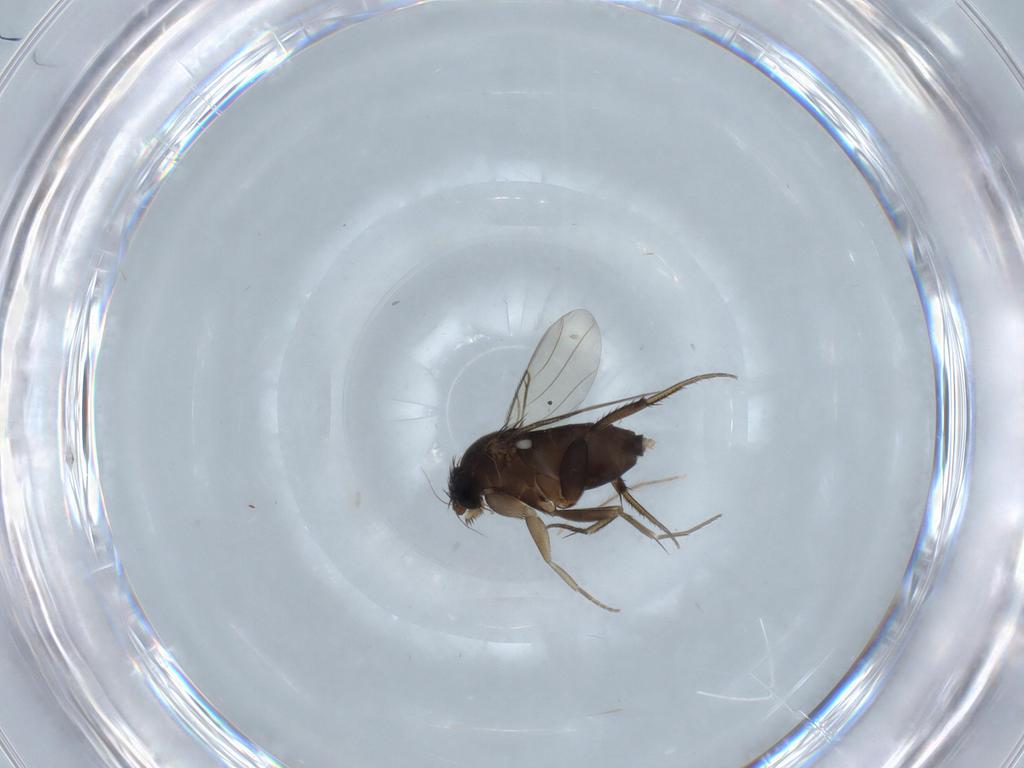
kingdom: Animalia
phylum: Arthropoda
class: Insecta
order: Diptera
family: Phoridae
